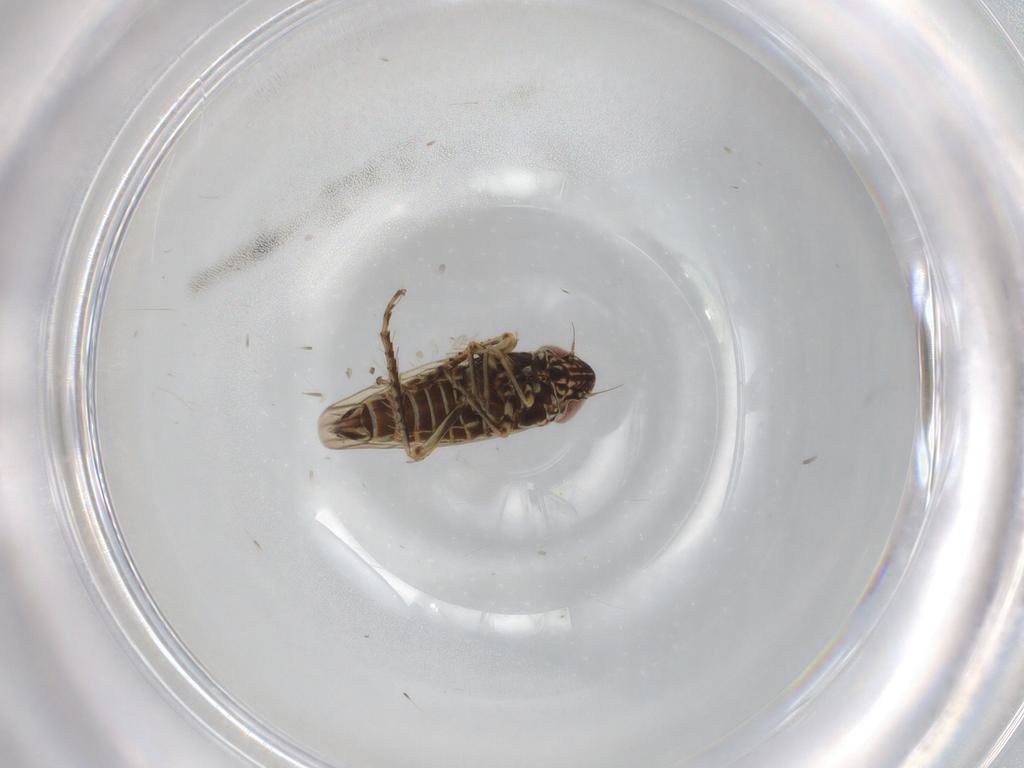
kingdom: Animalia
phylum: Arthropoda
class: Insecta
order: Hemiptera
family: Cicadellidae
